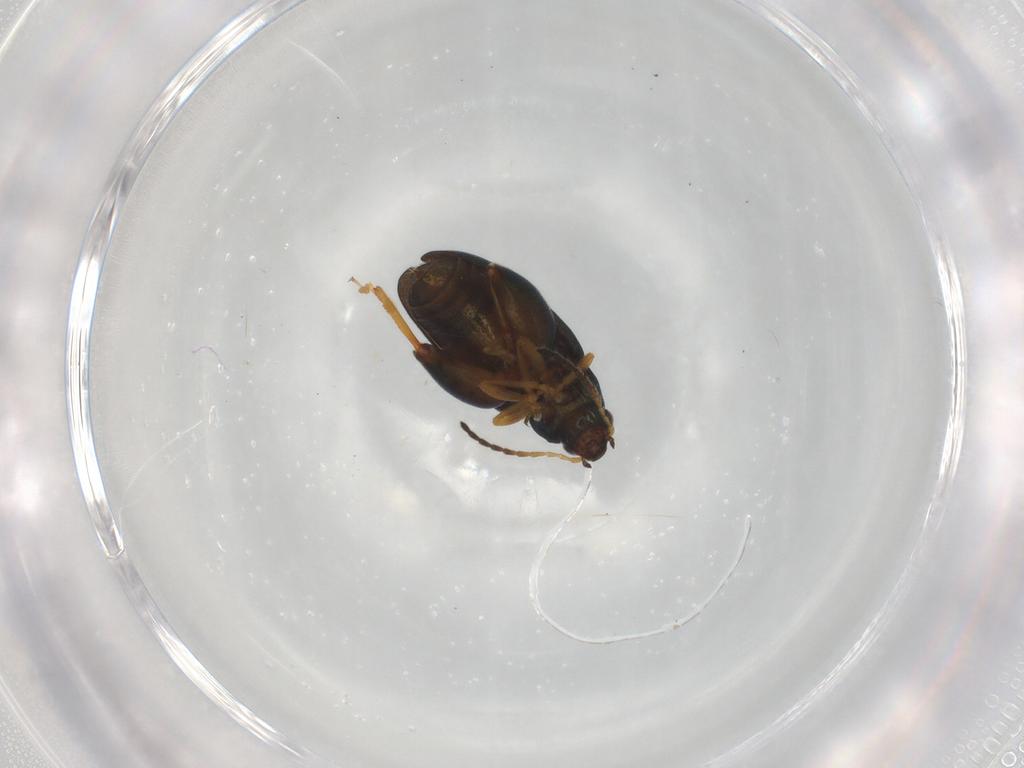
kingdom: Animalia
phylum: Arthropoda
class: Insecta
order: Coleoptera
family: Chrysomelidae
